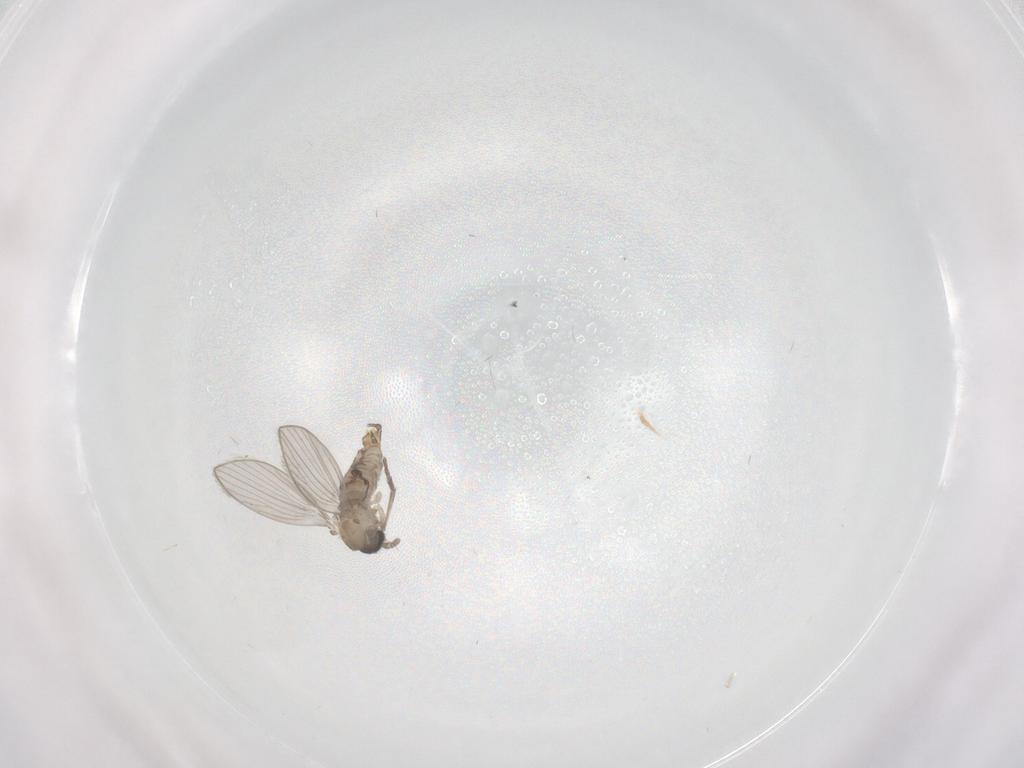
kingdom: Animalia
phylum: Arthropoda
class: Insecta
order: Diptera
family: Psychodidae
